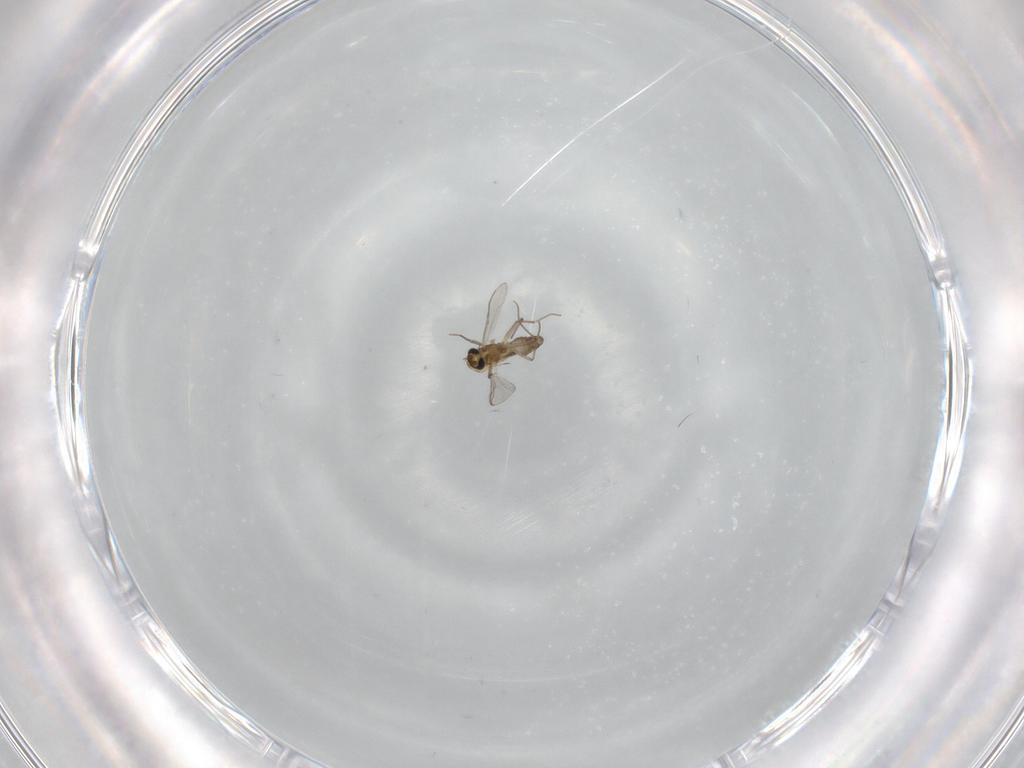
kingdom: Animalia
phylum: Arthropoda
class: Insecta
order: Diptera
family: Chironomidae
